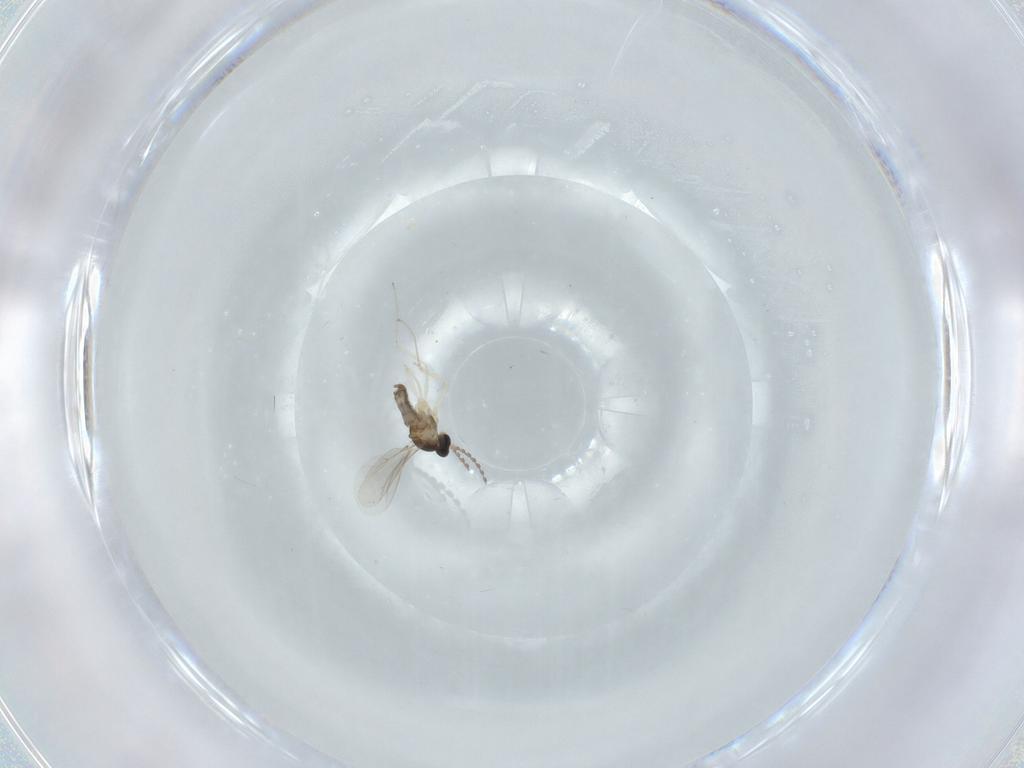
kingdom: Animalia
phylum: Arthropoda
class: Insecta
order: Diptera
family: Cecidomyiidae
